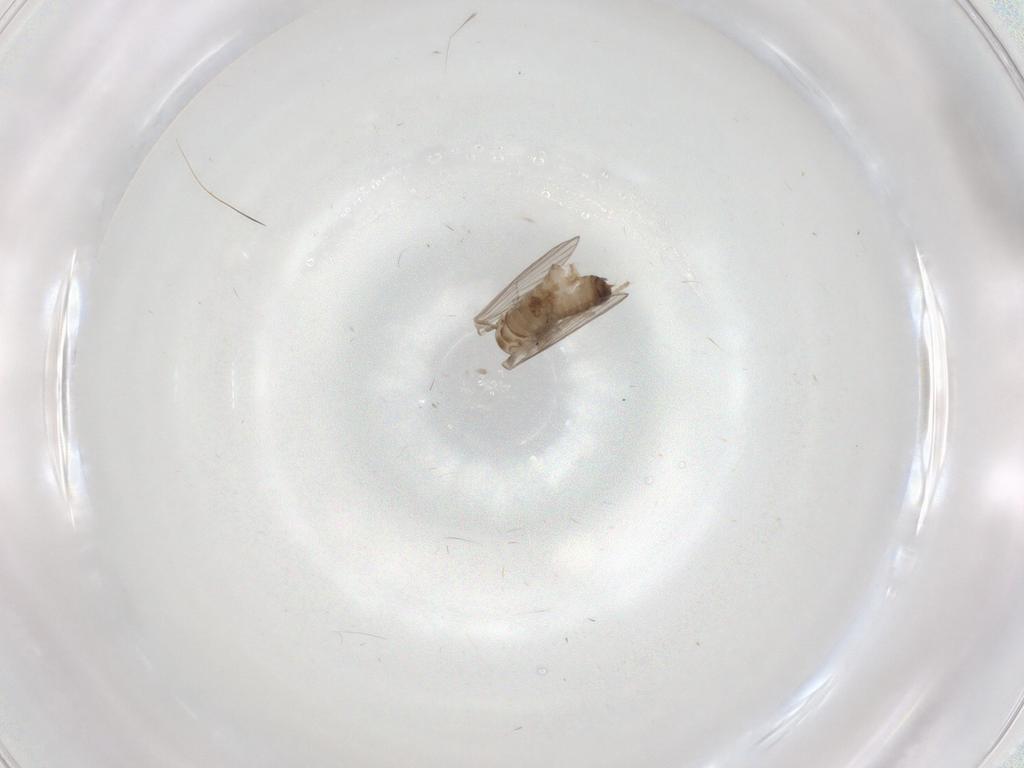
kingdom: Animalia
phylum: Arthropoda
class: Insecta
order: Diptera
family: Psychodidae
